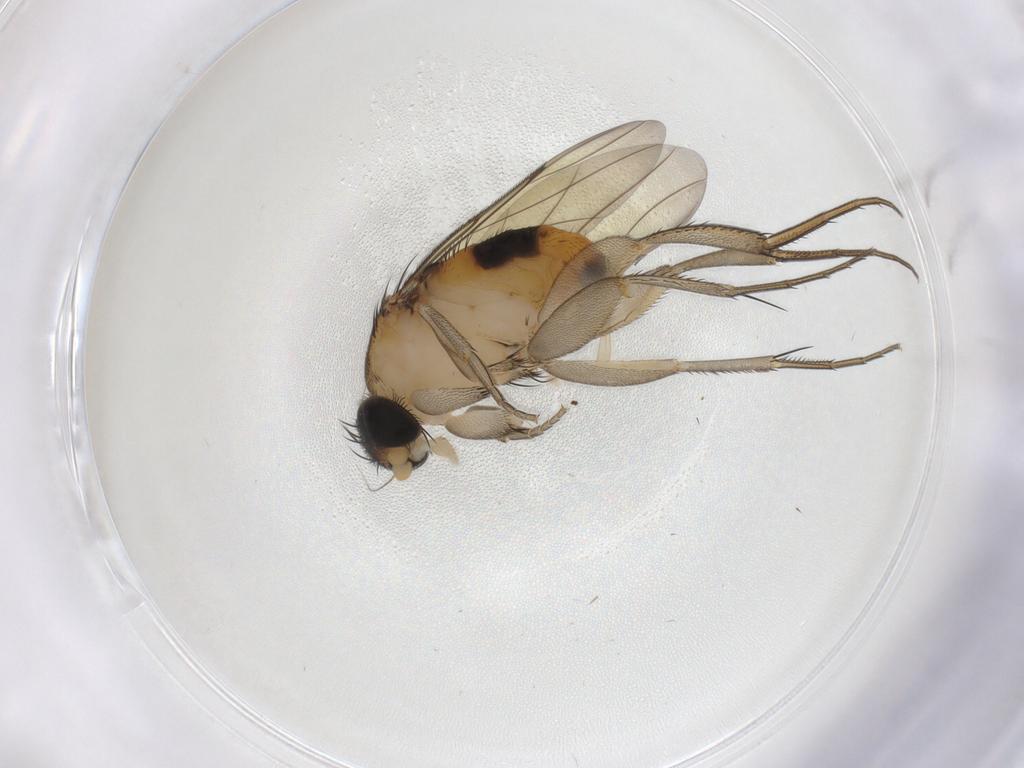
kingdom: Animalia
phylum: Arthropoda
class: Insecta
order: Diptera
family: Phoridae
